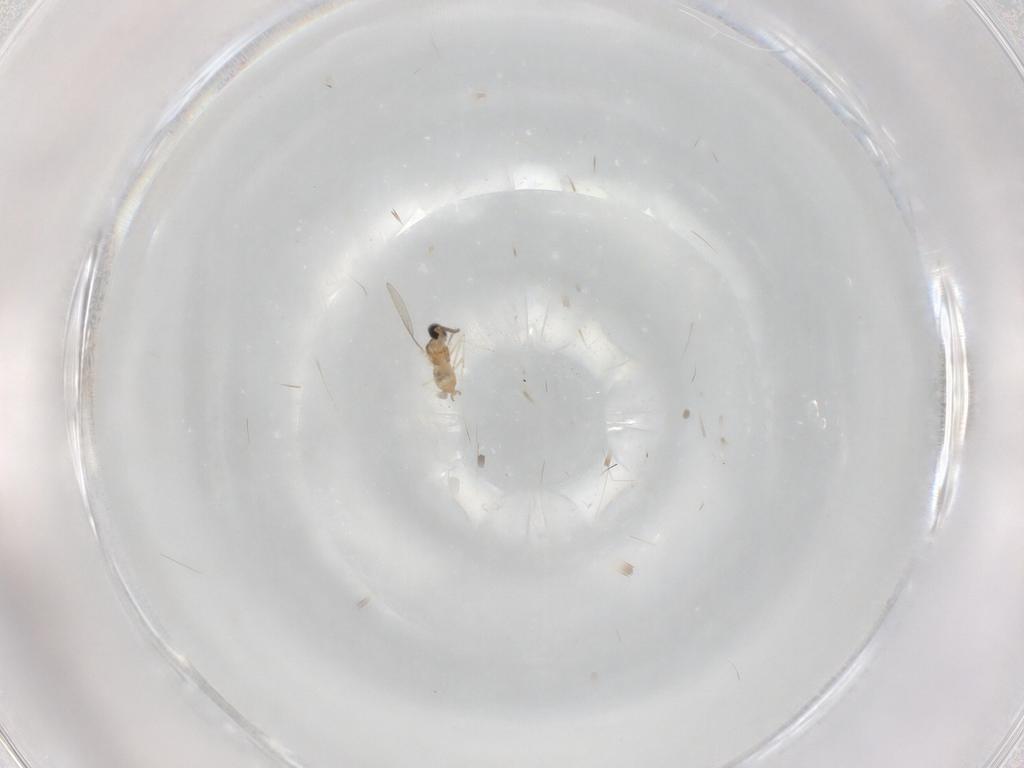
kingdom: Animalia
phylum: Arthropoda
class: Insecta
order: Diptera
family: Cecidomyiidae
